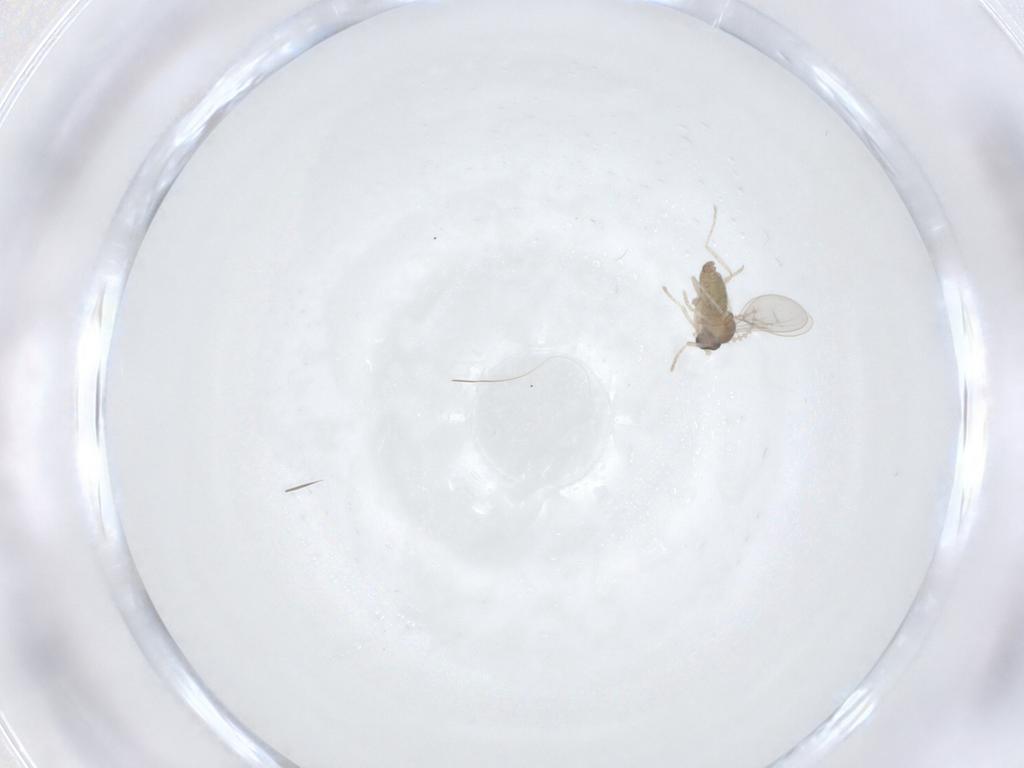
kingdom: Animalia
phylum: Arthropoda
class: Insecta
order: Diptera
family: Cecidomyiidae
